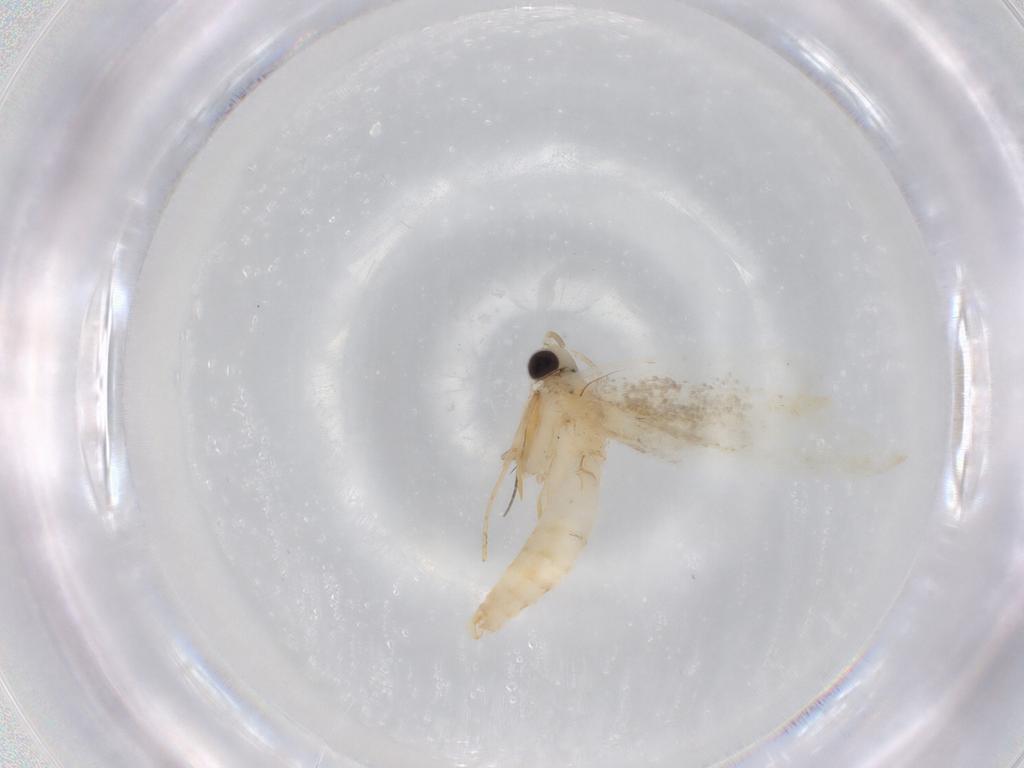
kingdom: Animalia
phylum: Arthropoda
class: Insecta
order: Lepidoptera
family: Tineidae
